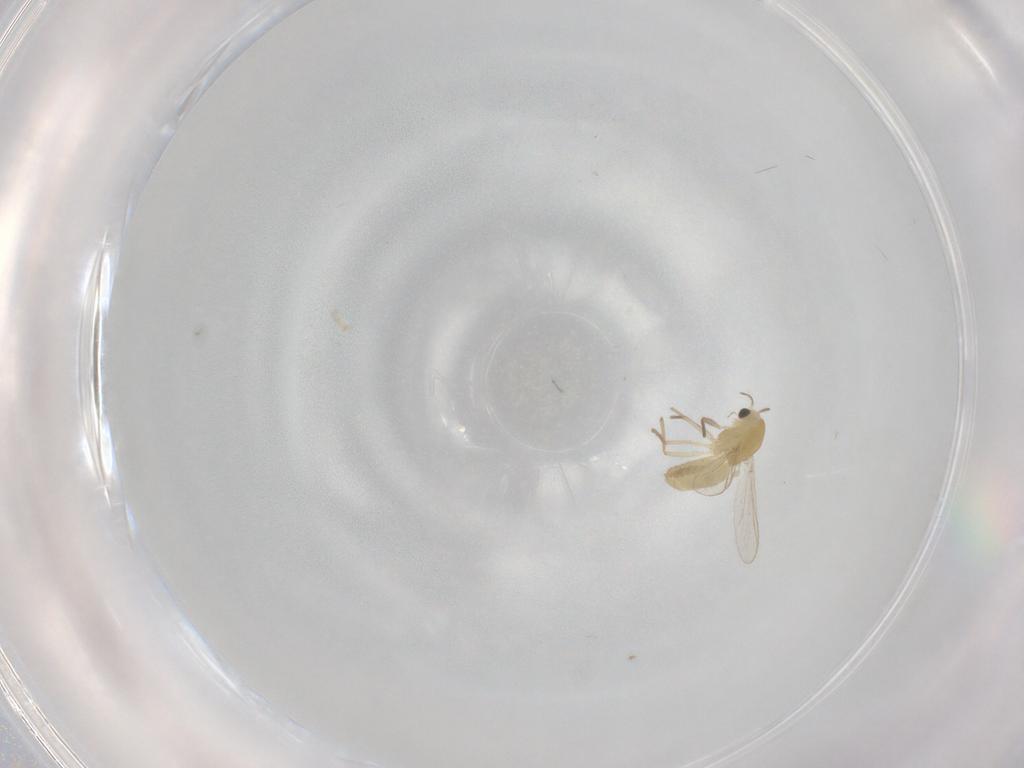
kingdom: Animalia
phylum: Arthropoda
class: Insecta
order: Diptera
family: Chironomidae
